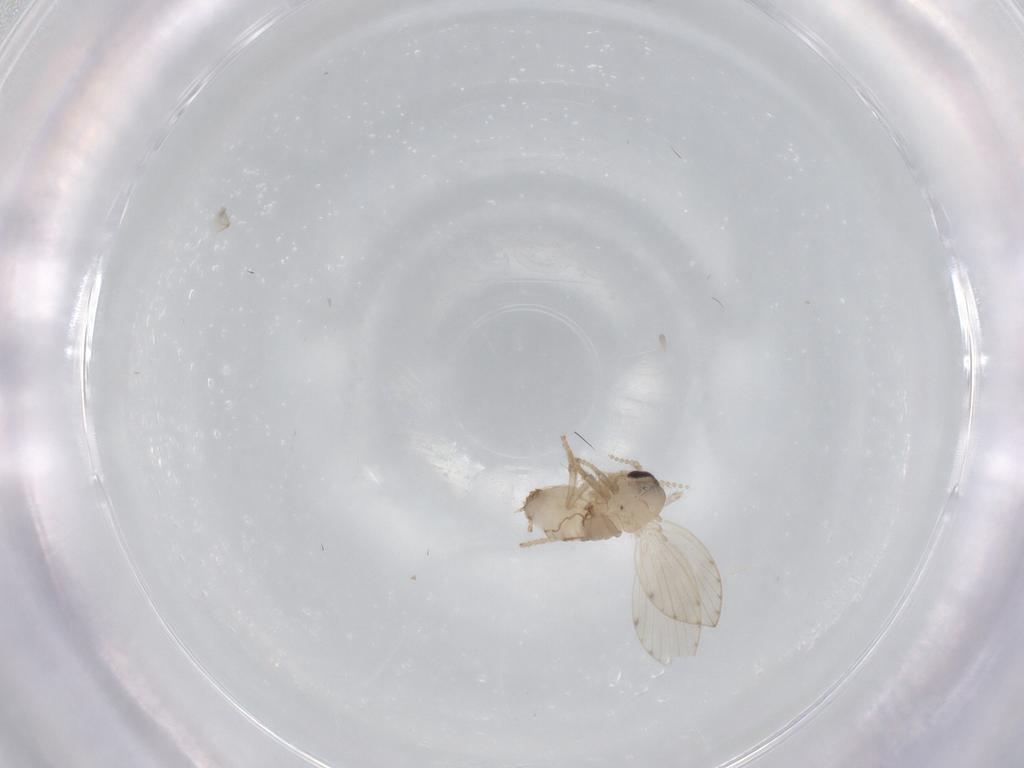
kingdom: Animalia
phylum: Arthropoda
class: Insecta
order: Diptera
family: Psychodidae
